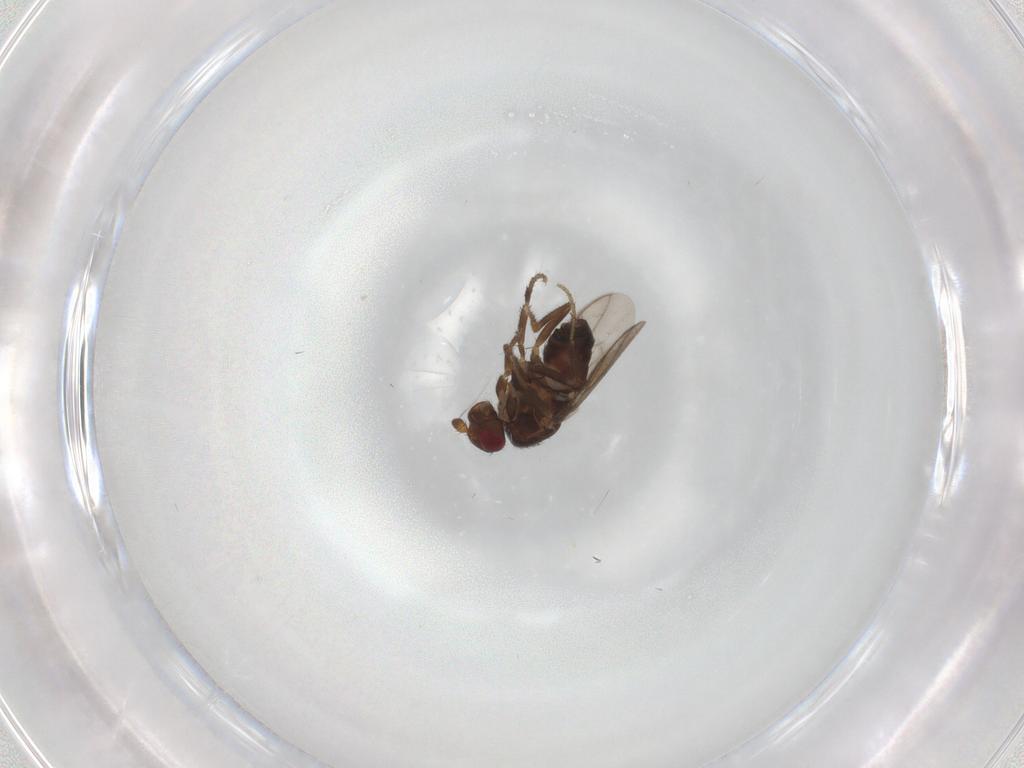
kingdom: Animalia
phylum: Arthropoda
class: Insecta
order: Diptera
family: Sphaeroceridae
